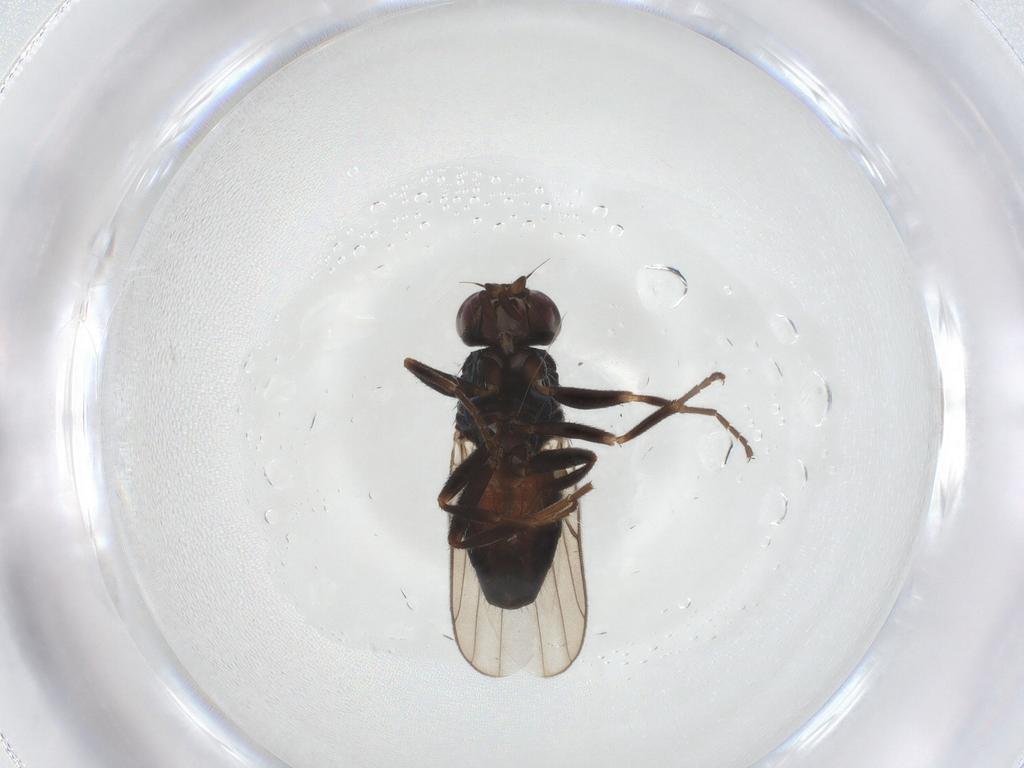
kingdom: Animalia
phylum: Arthropoda
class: Insecta
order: Diptera
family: Chloropidae
